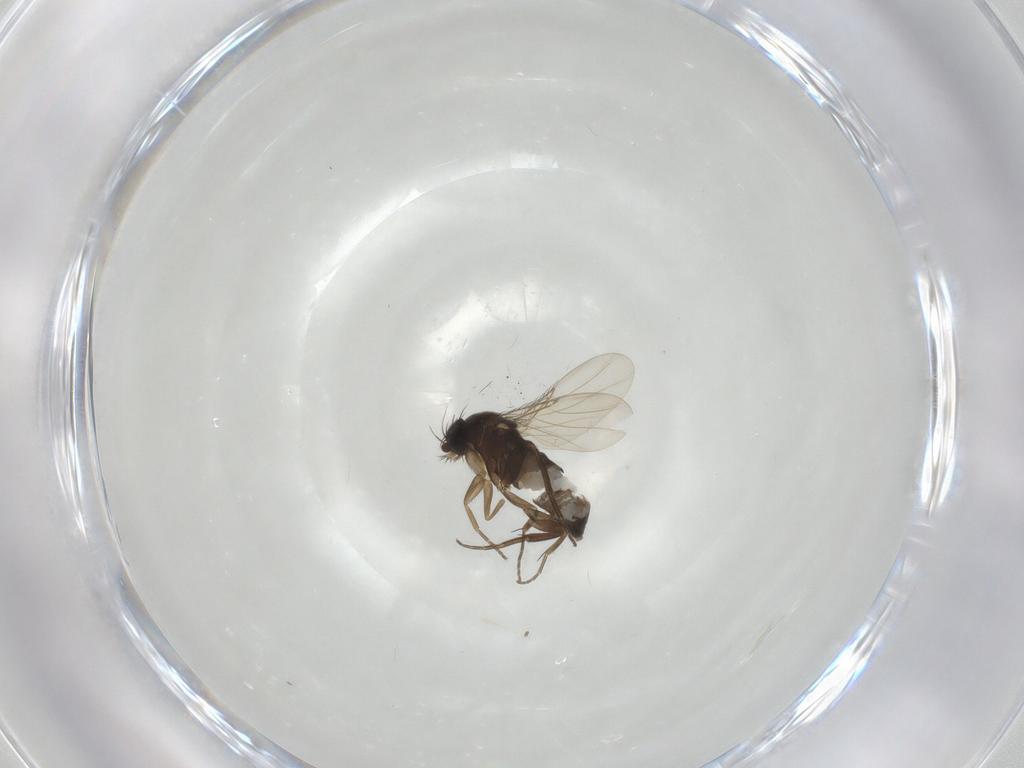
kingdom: Animalia
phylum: Arthropoda
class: Insecta
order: Diptera
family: Phoridae
